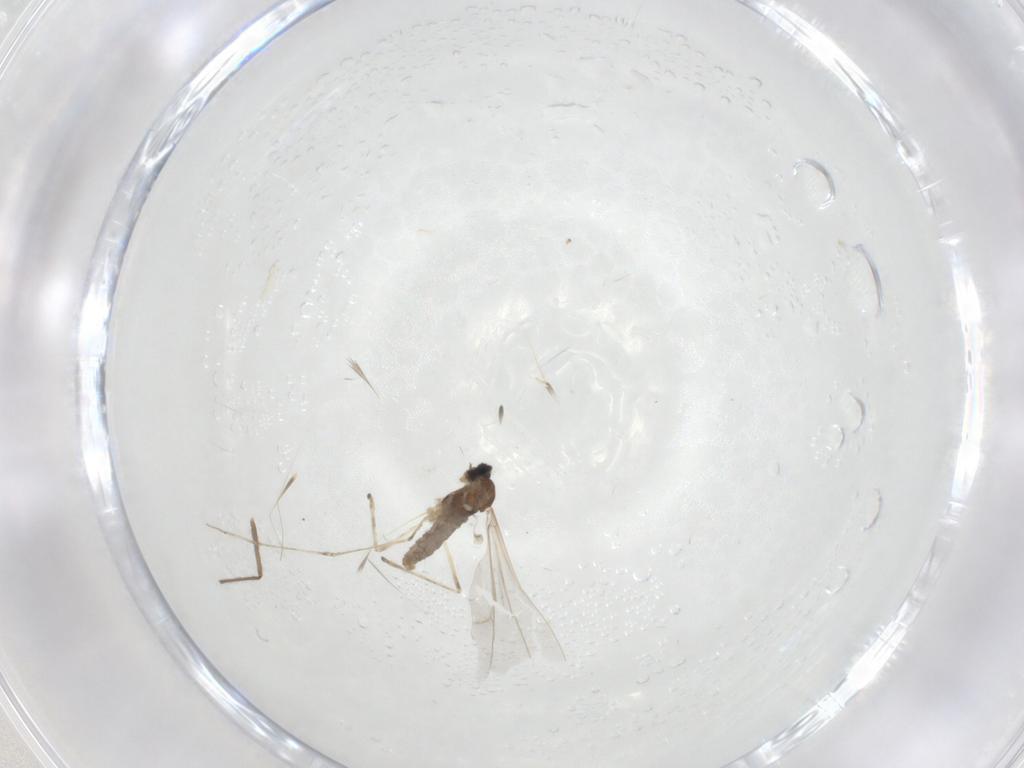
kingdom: Animalia
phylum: Arthropoda
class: Insecta
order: Diptera
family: Cecidomyiidae
